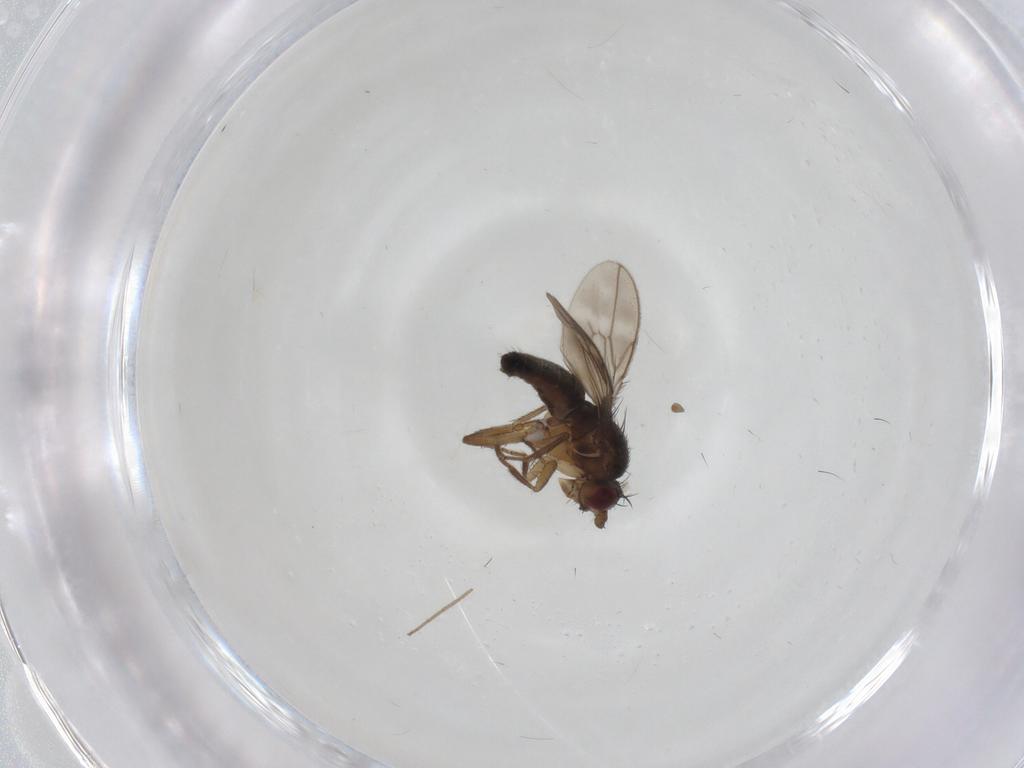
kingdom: Animalia
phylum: Arthropoda
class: Insecta
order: Diptera
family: Sphaeroceridae
